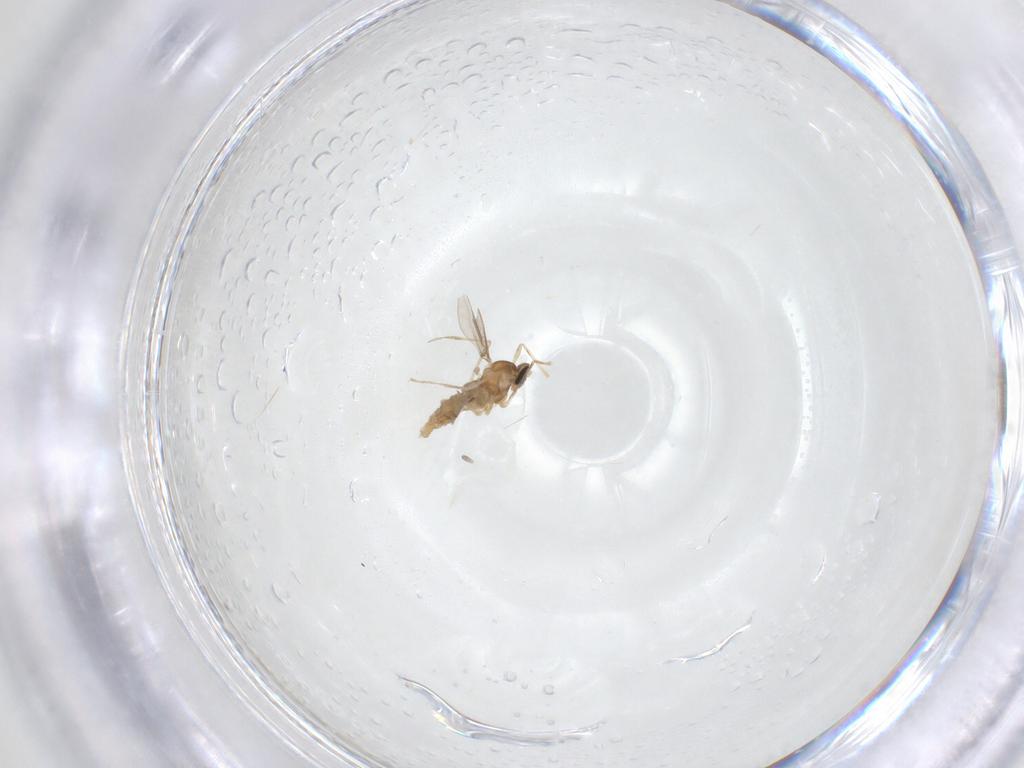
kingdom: Animalia
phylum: Arthropoda
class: Insecta
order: Diptera
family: Cecidomyiidae
